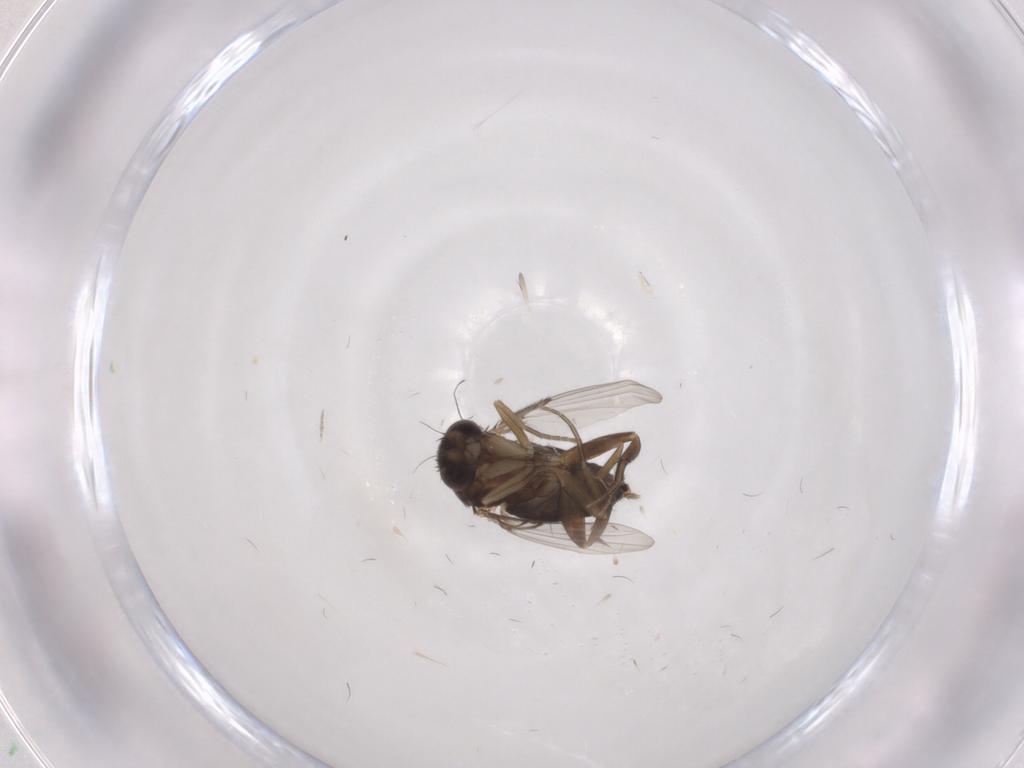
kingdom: Animalia
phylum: Arthropoda
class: Insecta
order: Diptera
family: Phoridae
